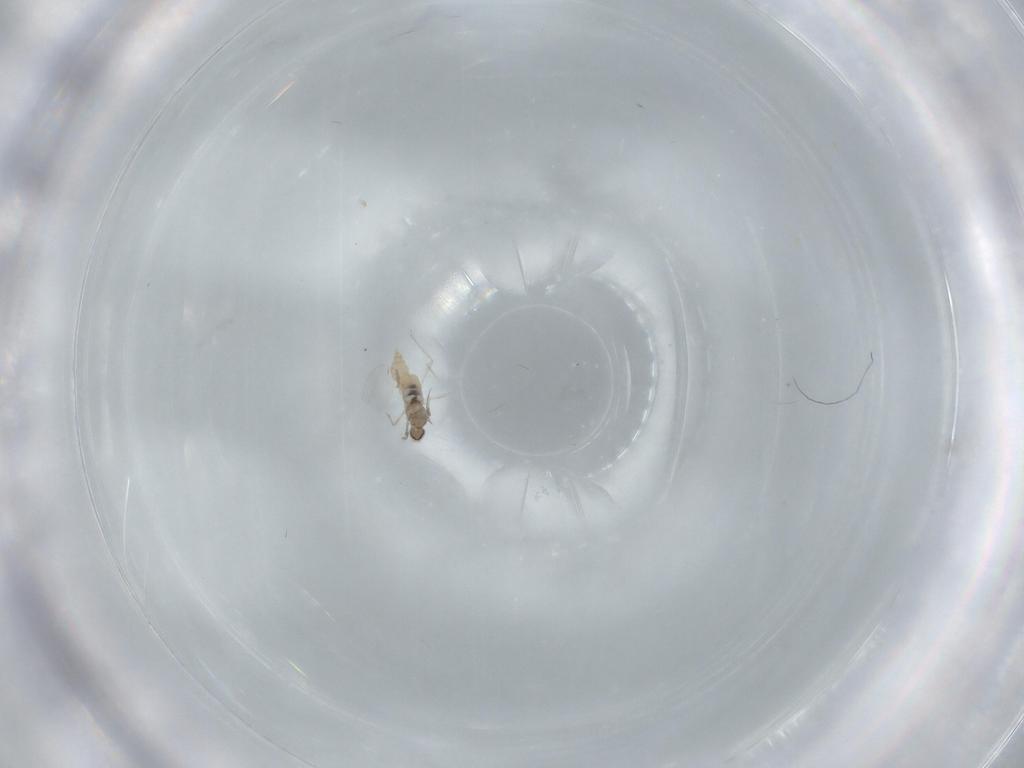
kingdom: Animalia
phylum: Arthropoda
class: Insecta
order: Diptera
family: Cecidomyiidae
